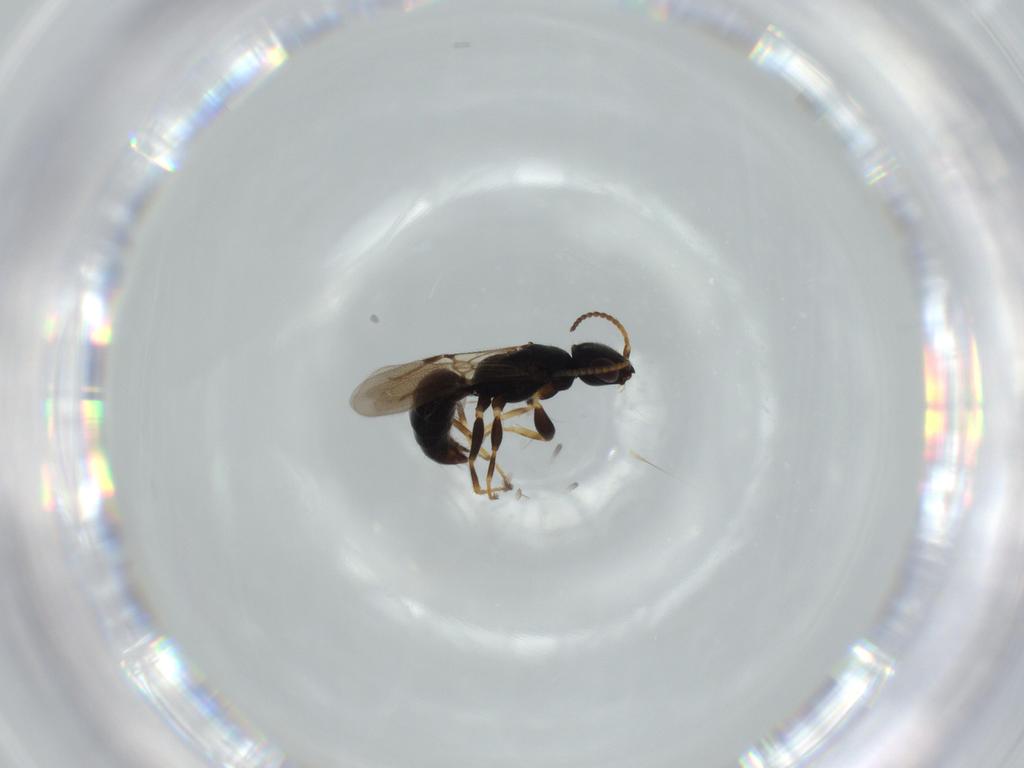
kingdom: Animalia
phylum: Arthropoda
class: Insecta
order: Hymenoptera
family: Bethylidae
